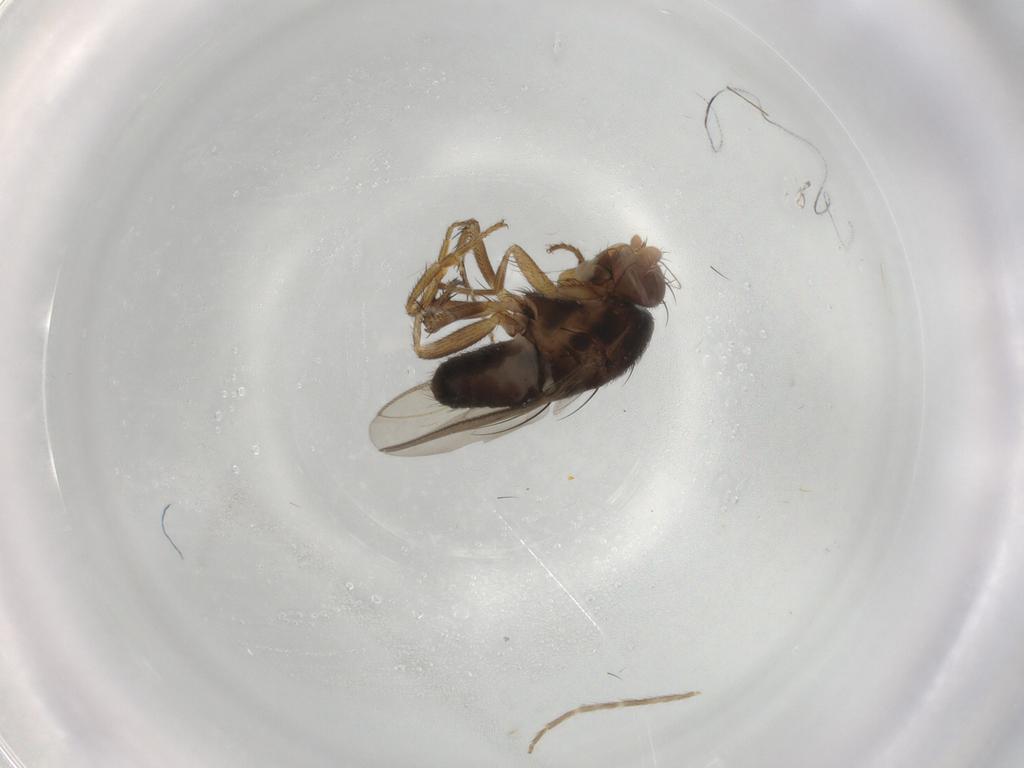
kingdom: Animalia
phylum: Arthropoda
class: Insecta
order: Diptera
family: Sphaeroceridae
